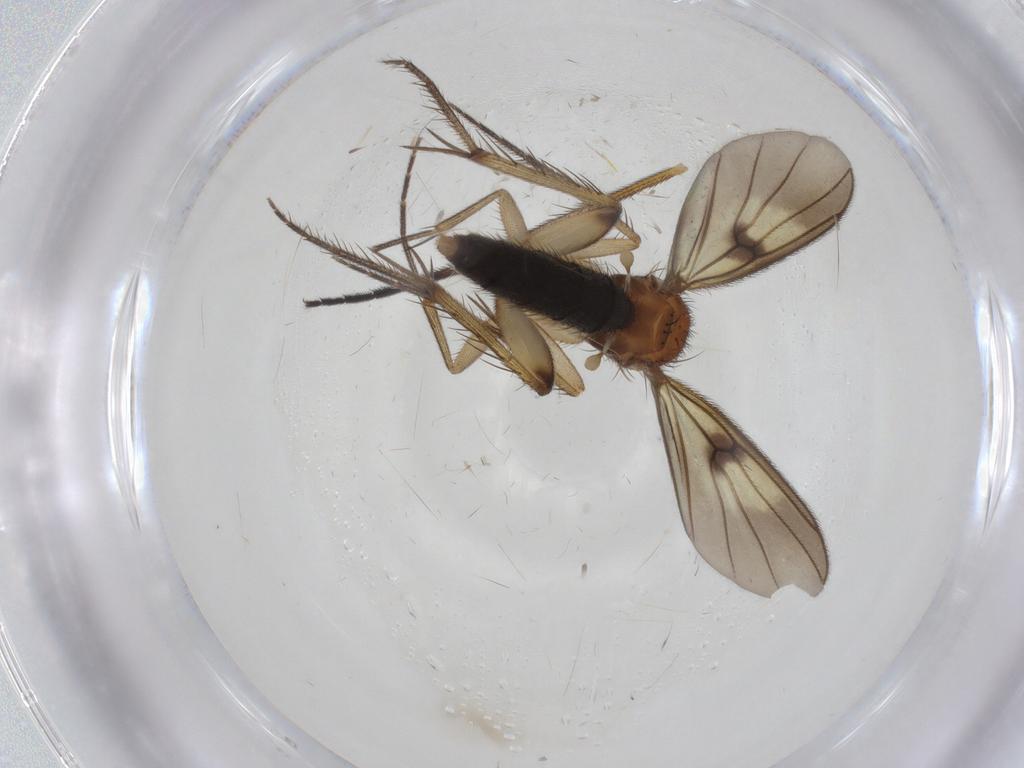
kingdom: Animalia
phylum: Arthropoda
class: Insecta
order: Diptera
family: Mycetophilidae
